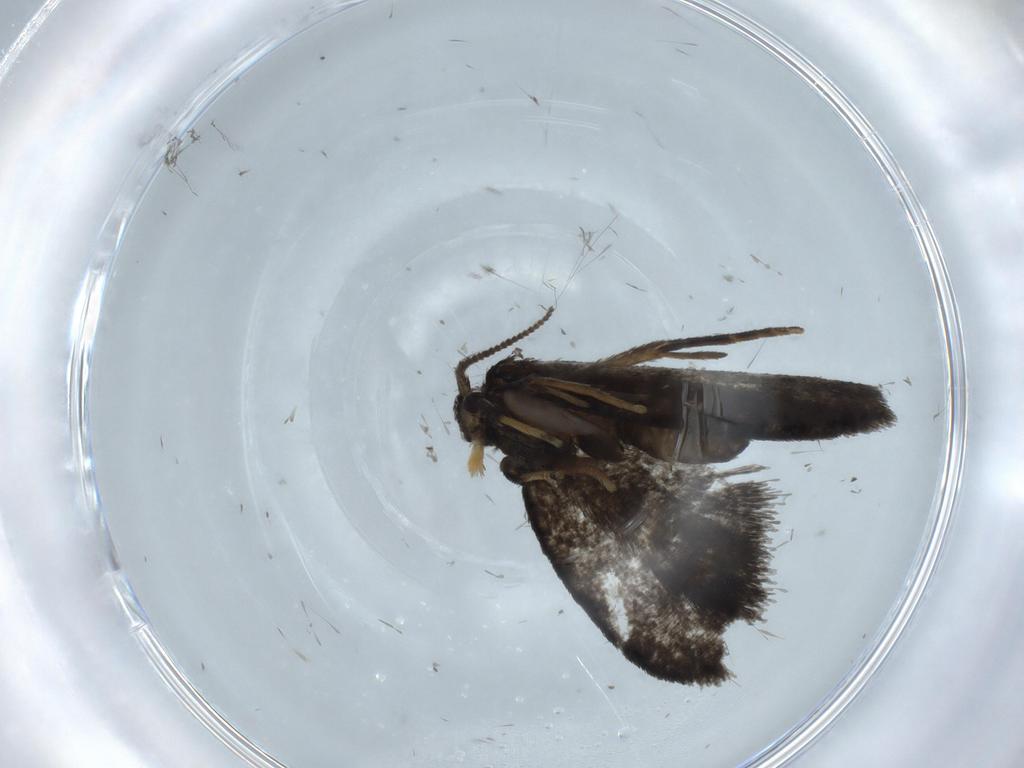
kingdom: Animalia
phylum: Arthropoda
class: Insecta
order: Lepidoptera
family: Psychidae
